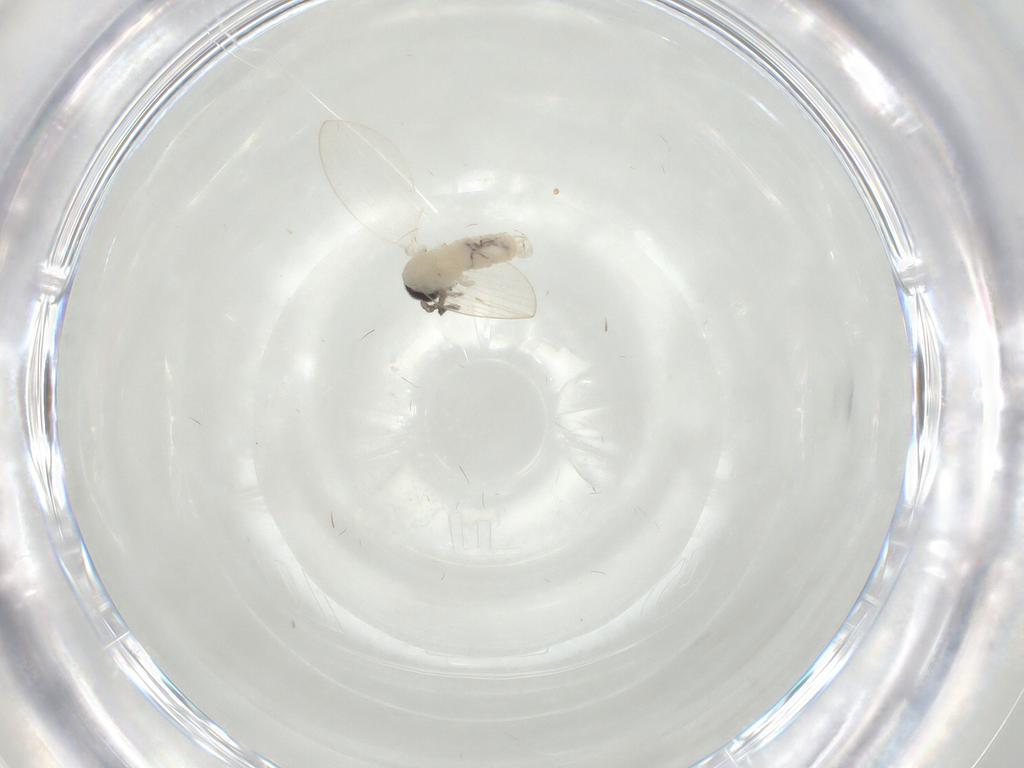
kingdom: Animalia
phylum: Arthropoda
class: Insecta
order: Diptera
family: Psychodidae
